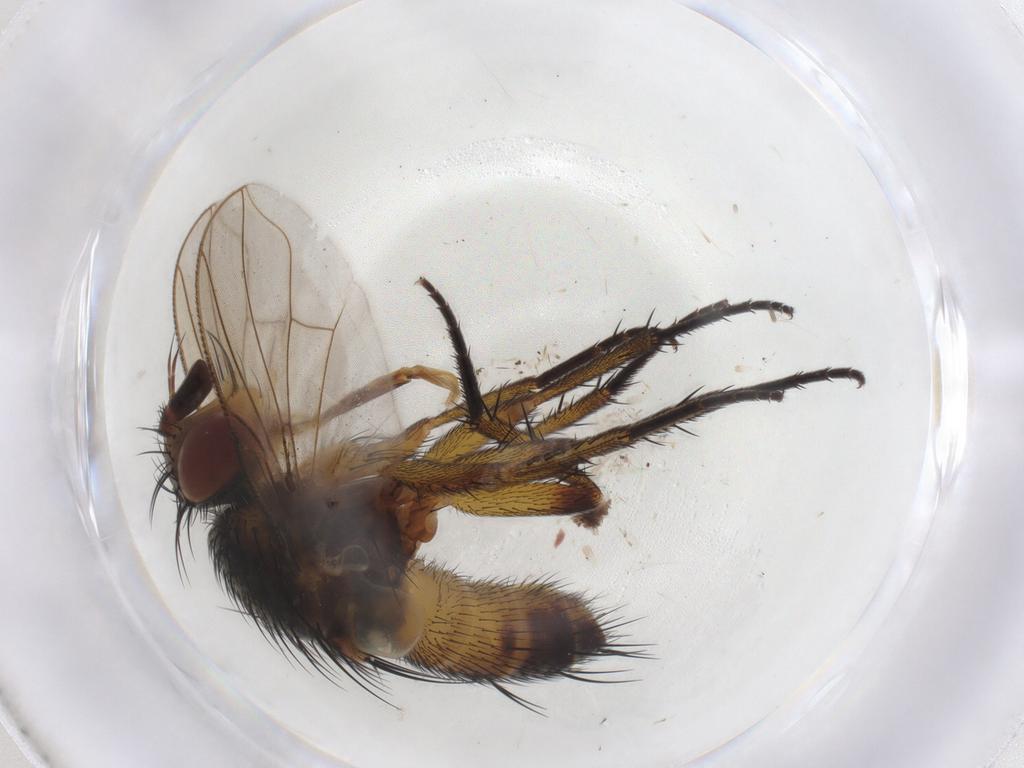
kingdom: Animalia
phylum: Arthropoda
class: Insecta
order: Diptera
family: Tachinidae
